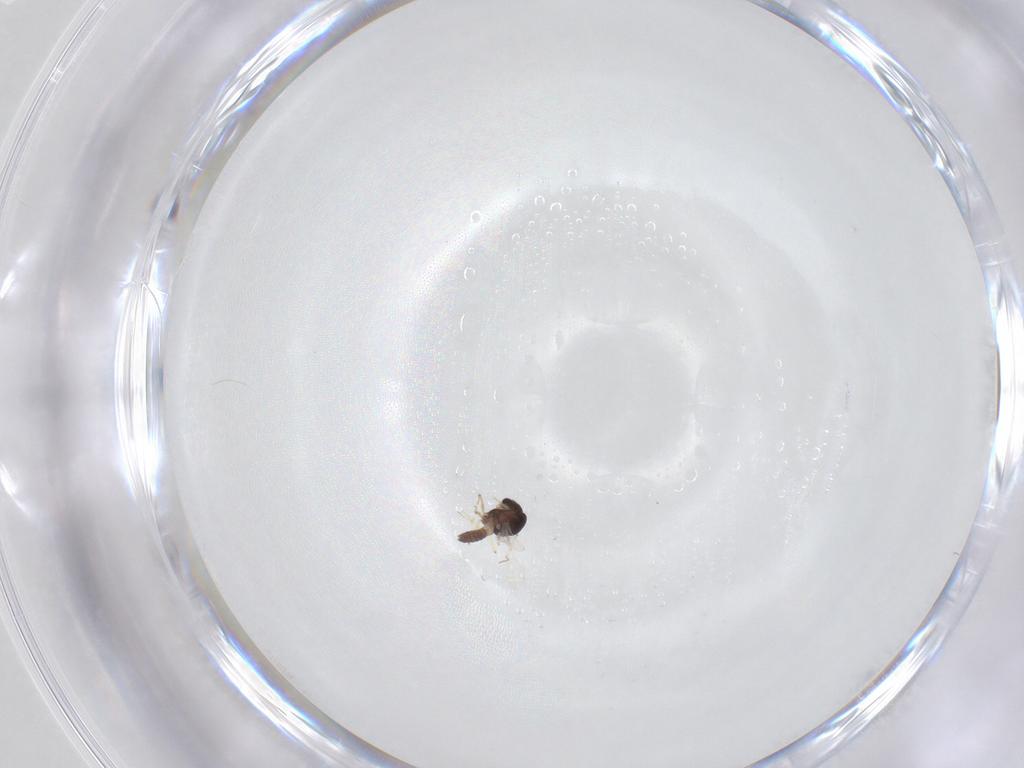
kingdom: Animalia
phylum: Arthropoda
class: Insecta
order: Diptera
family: Chironomidae
